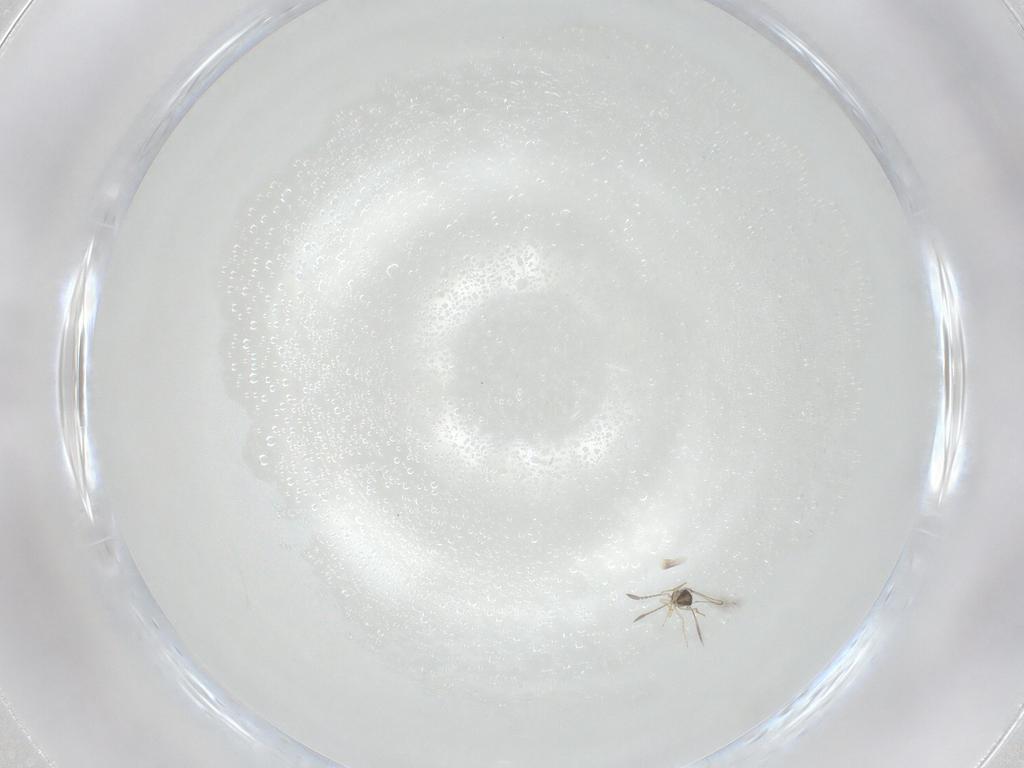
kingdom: Animalia
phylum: Arthropoda
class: Insecta
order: Hymenoptera
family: Mymaridae
